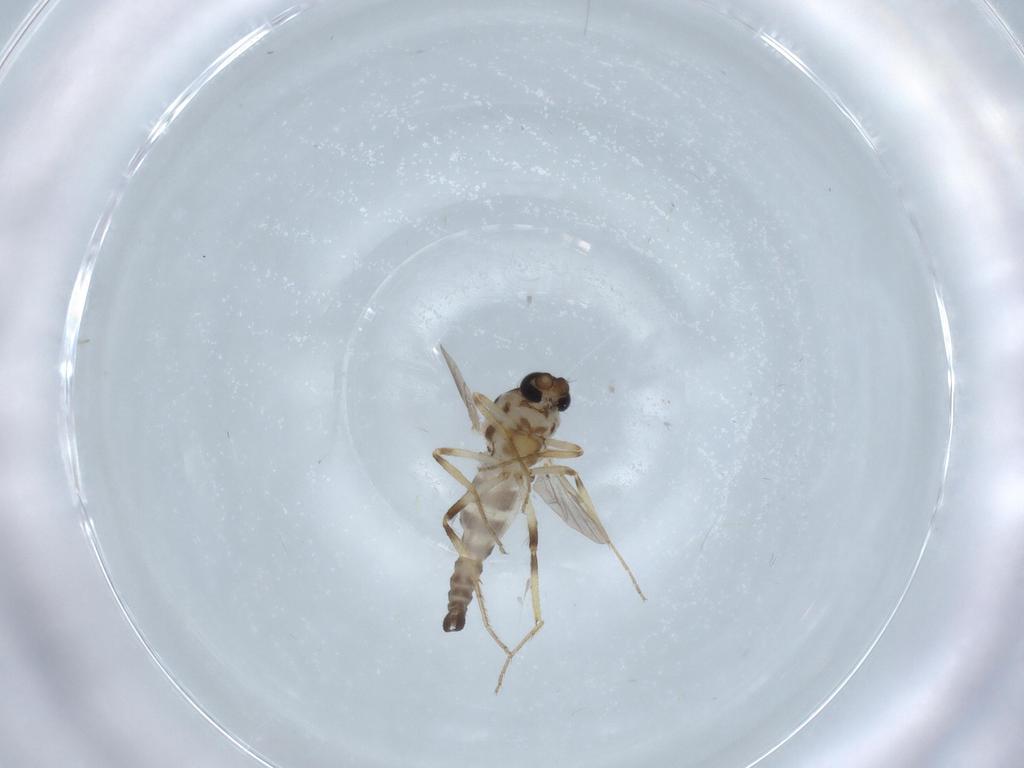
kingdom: Animalia
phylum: Arthropoda
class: Insecta
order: Diptera
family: Ceratopogonidae
